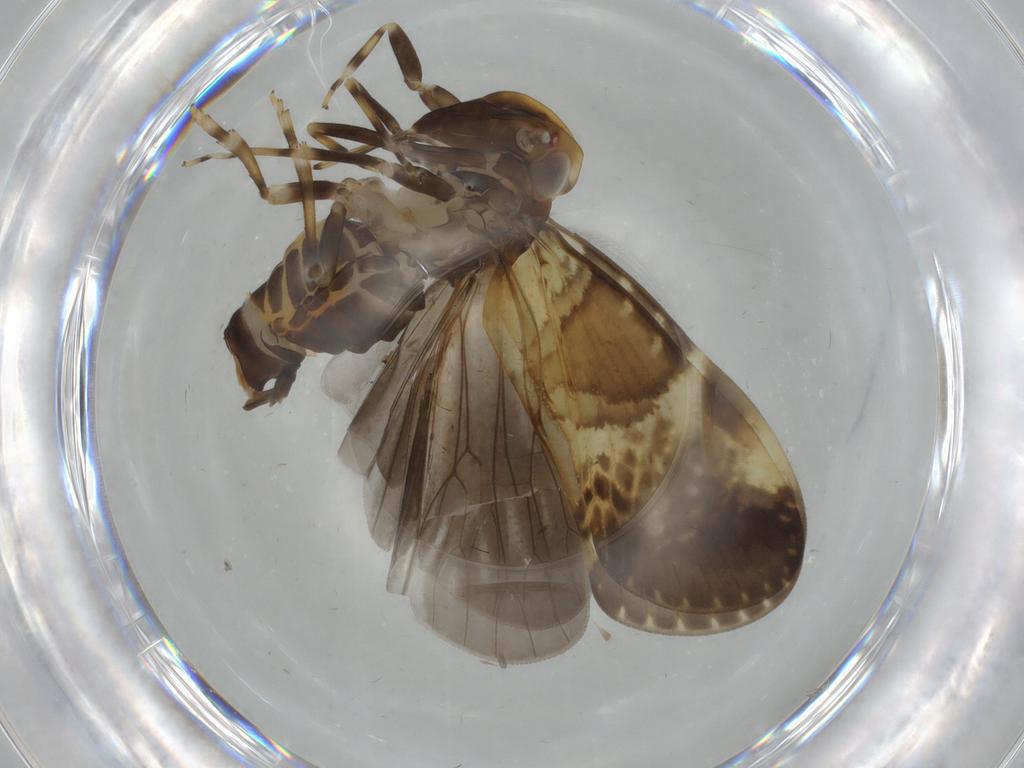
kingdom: Animalia
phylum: Arthropoda
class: Insecta
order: Hemiptera
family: Cixiidae
